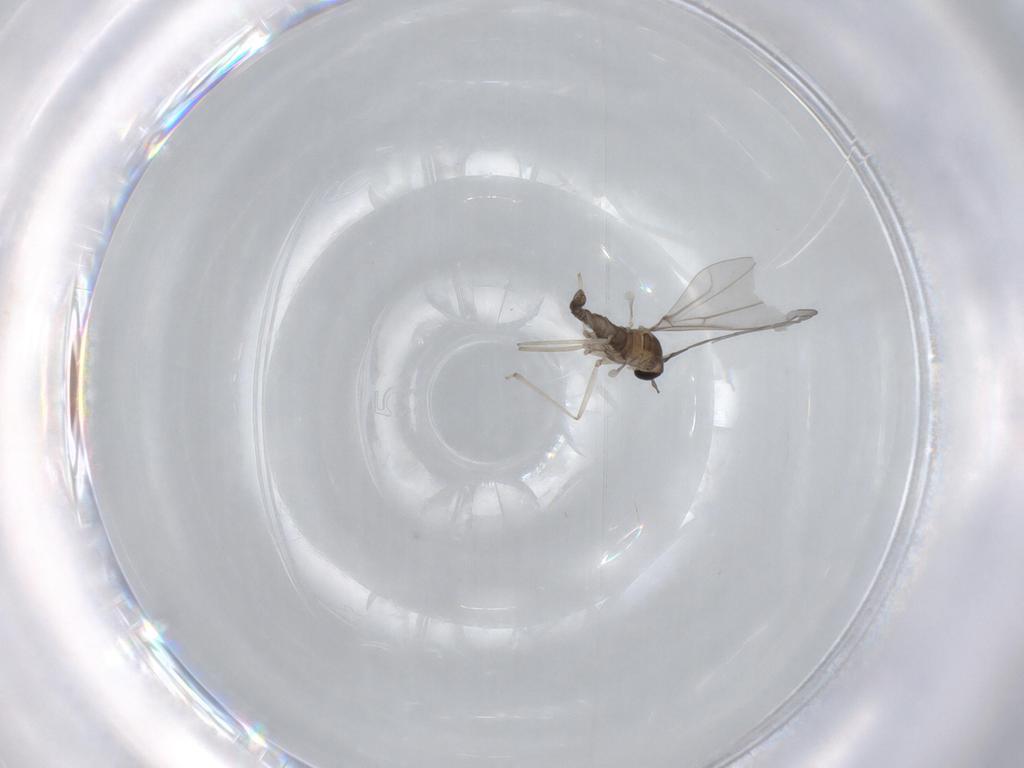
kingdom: Animalia
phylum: Arthropoda
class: Insecta
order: Diptera
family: Cecidomyiidae
